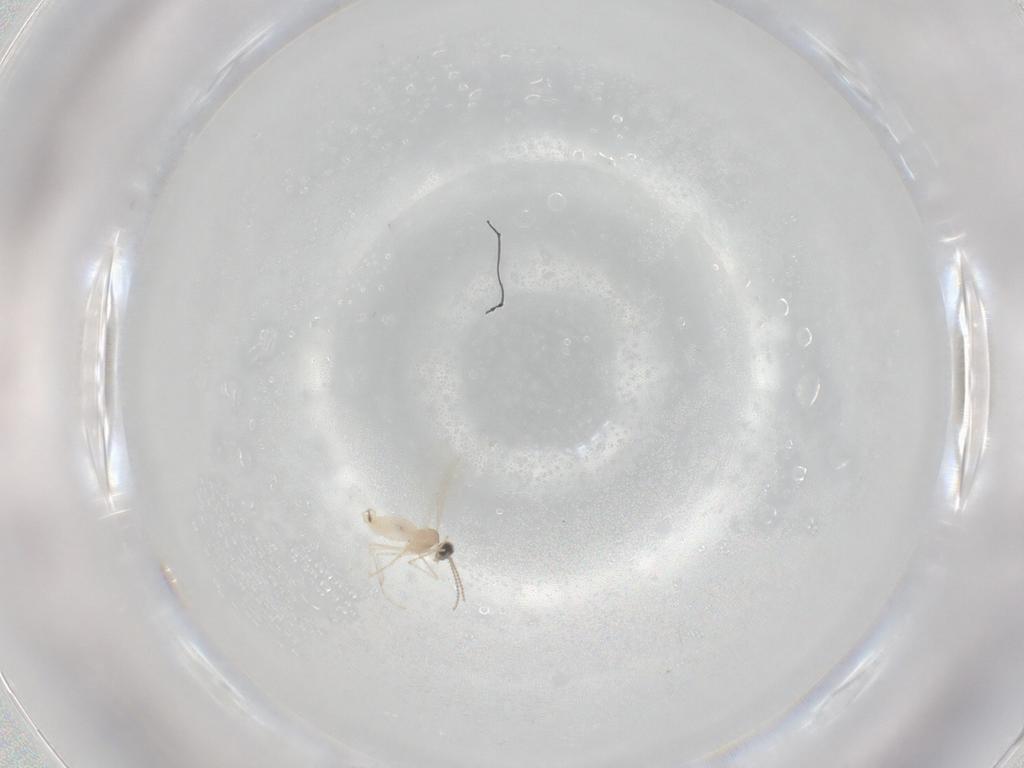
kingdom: Animalia
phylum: Arthropoda
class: Insecta
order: Diptera
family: Cecidomyiidae
